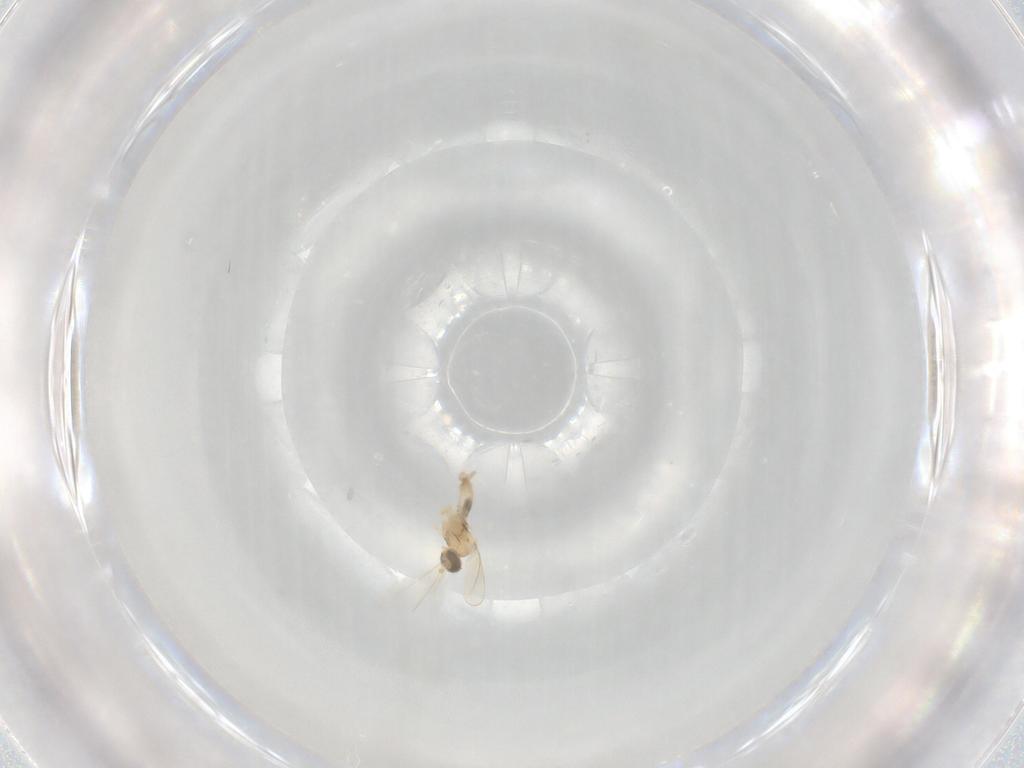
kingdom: Animalia
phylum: Arthropoda
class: Insecta
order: Diptera
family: Cecidomyiidae
